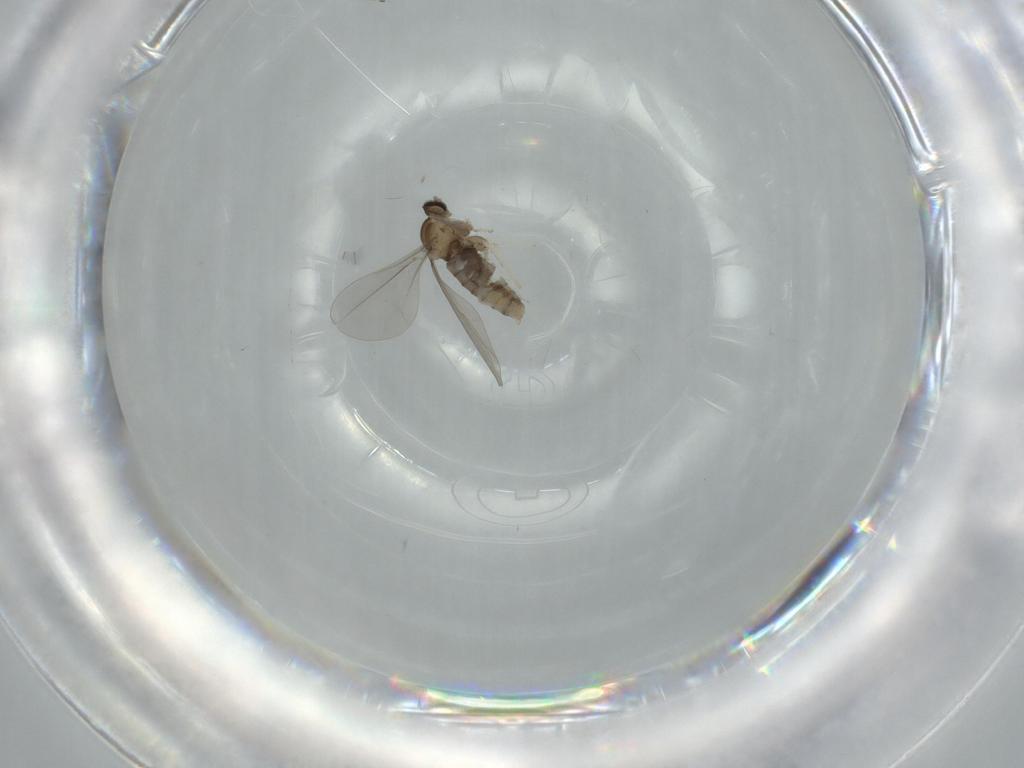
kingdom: Animalia
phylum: Arthropoda
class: Insecta
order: Diptera
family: Cecidomyiidae
